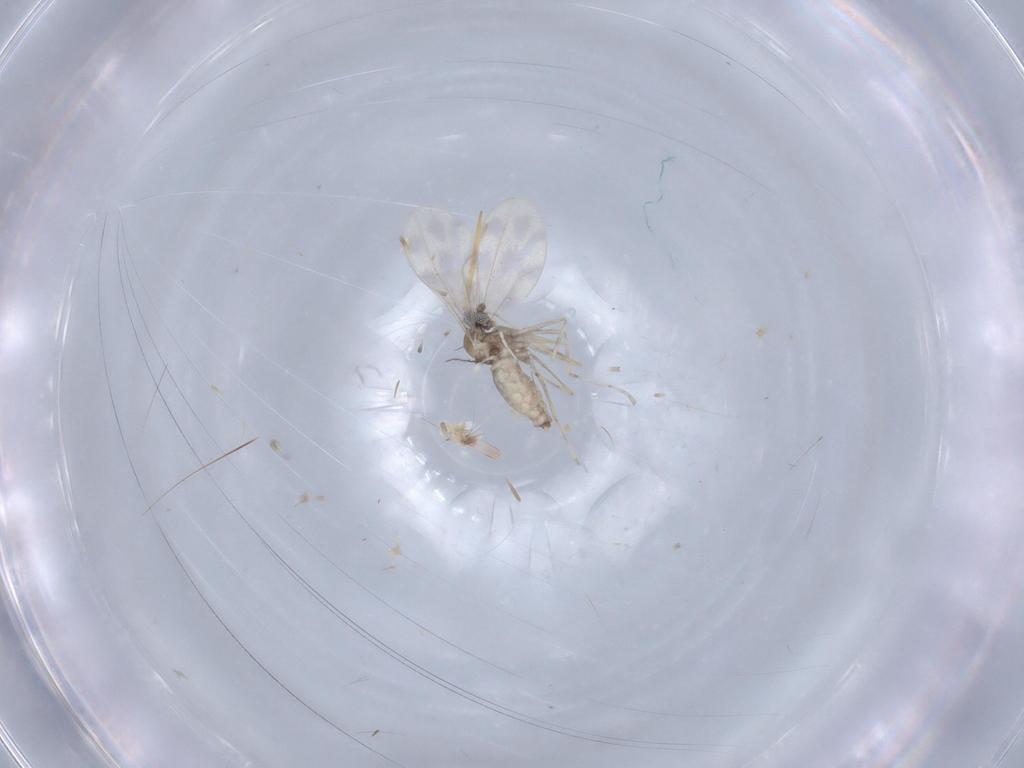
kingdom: Animalia
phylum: Arthropoda
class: Insecta
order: Diptera
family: Cecidomyiidae
